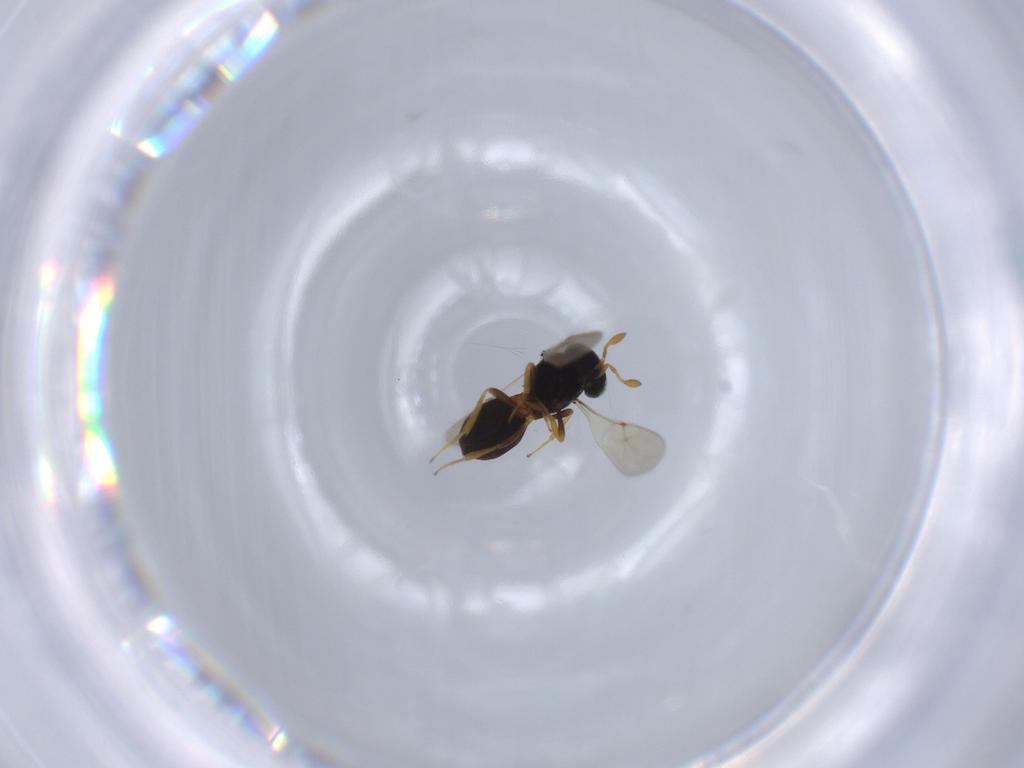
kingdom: Animalia
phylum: Arthropoda
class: Insecta
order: Hymenoptera
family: Scelionidae
